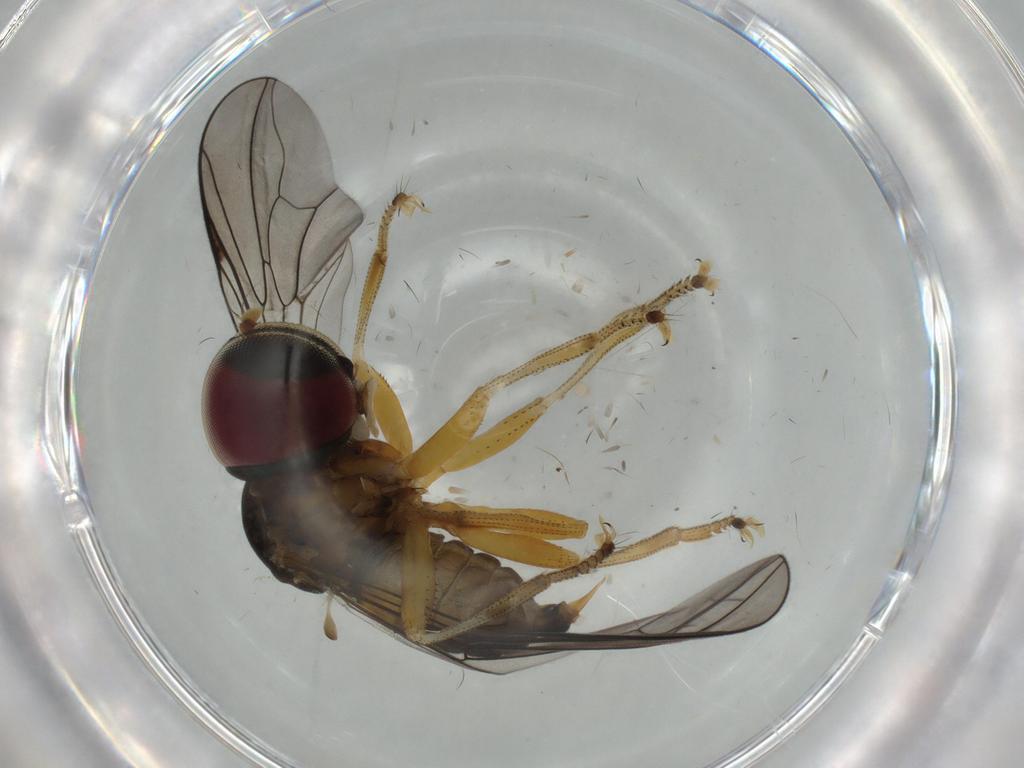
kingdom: Animalia
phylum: Arthropoda
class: Insecta
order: Diptera
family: Pipunculidae
